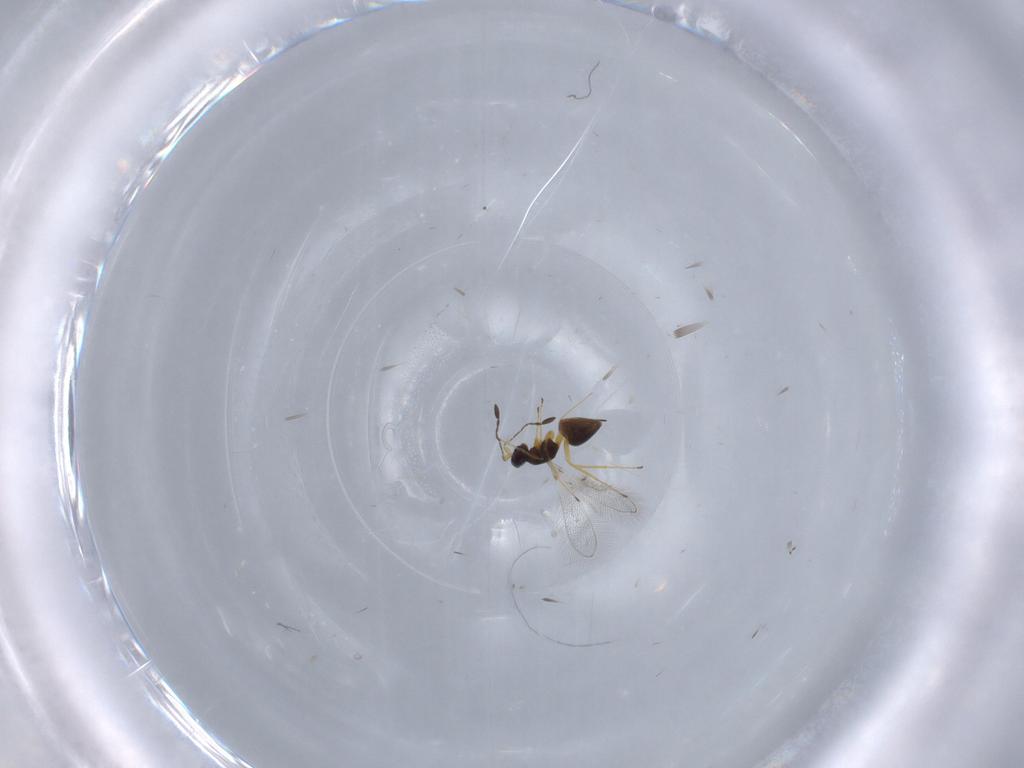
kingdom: Animalia
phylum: Arthropoda
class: Insecta
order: Hymenoptera
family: Mymaridae
